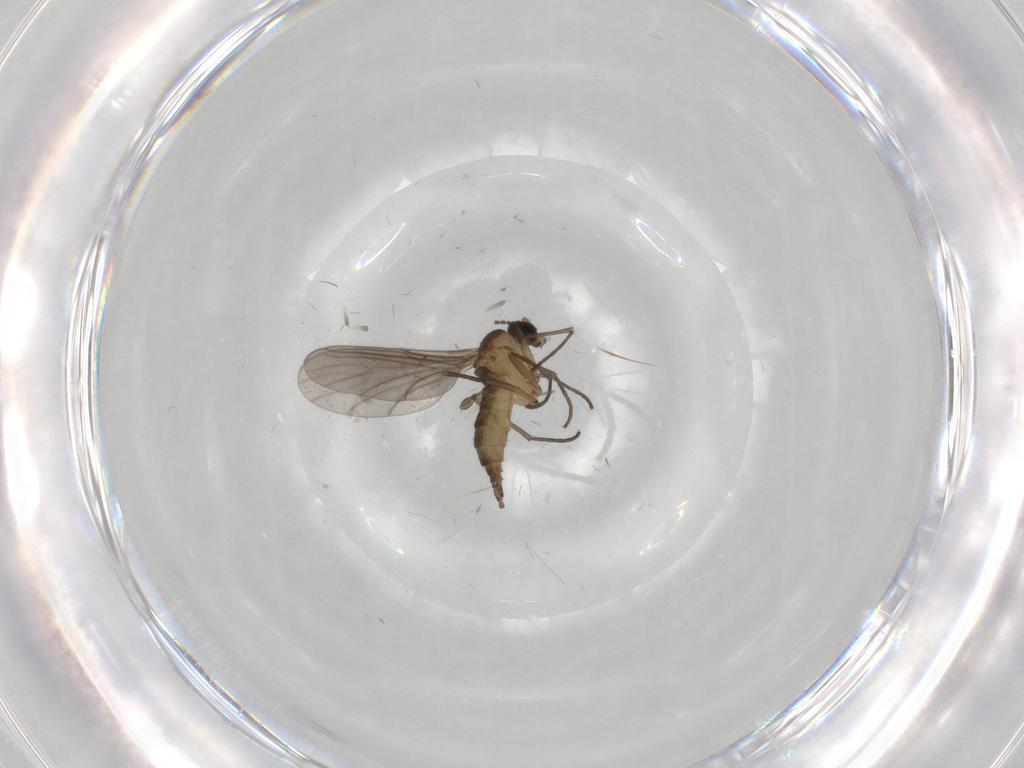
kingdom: Animalia
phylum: Arthropoda
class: Insecta
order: Diptera
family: Sciaridae
